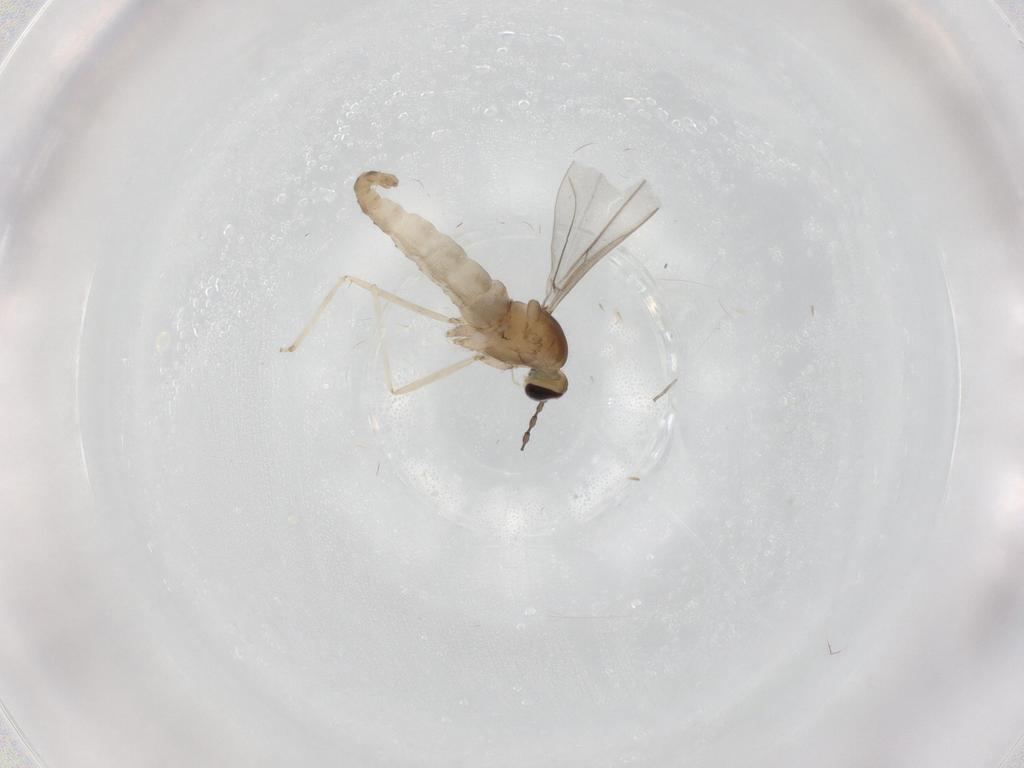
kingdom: Animalia
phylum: Arthropoda
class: Insecta
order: Diptera
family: Cecidomyiidae
